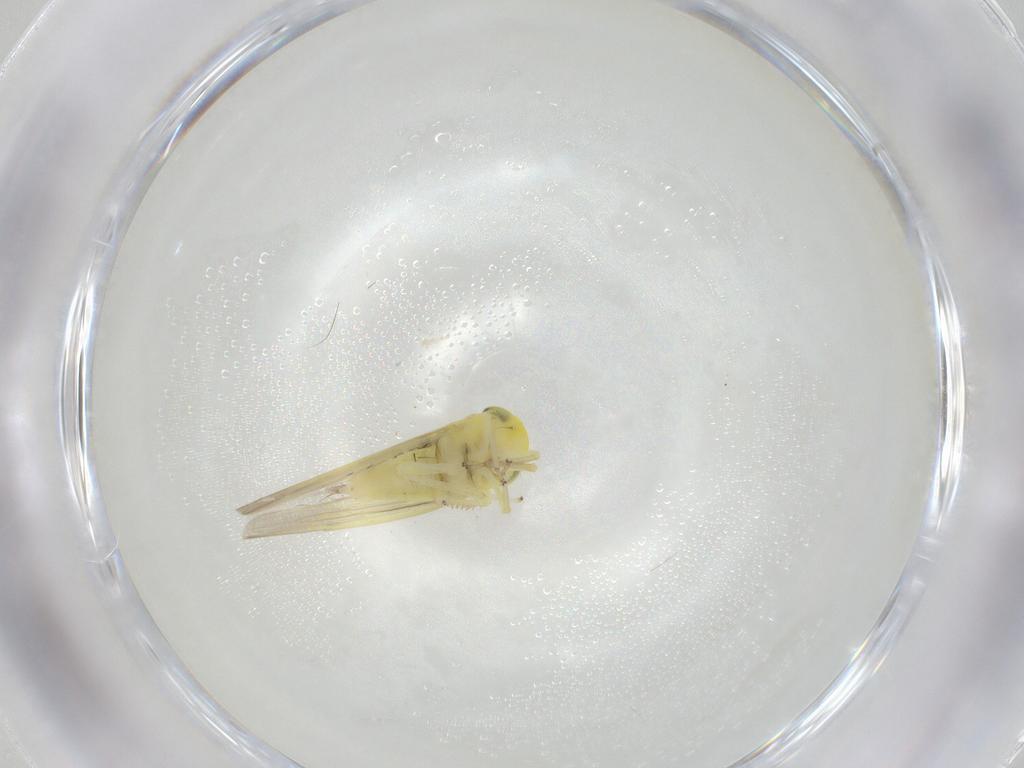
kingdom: Animalia
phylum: Arthropoda
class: Insecta
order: Hemiptera
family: Cicadellidae
